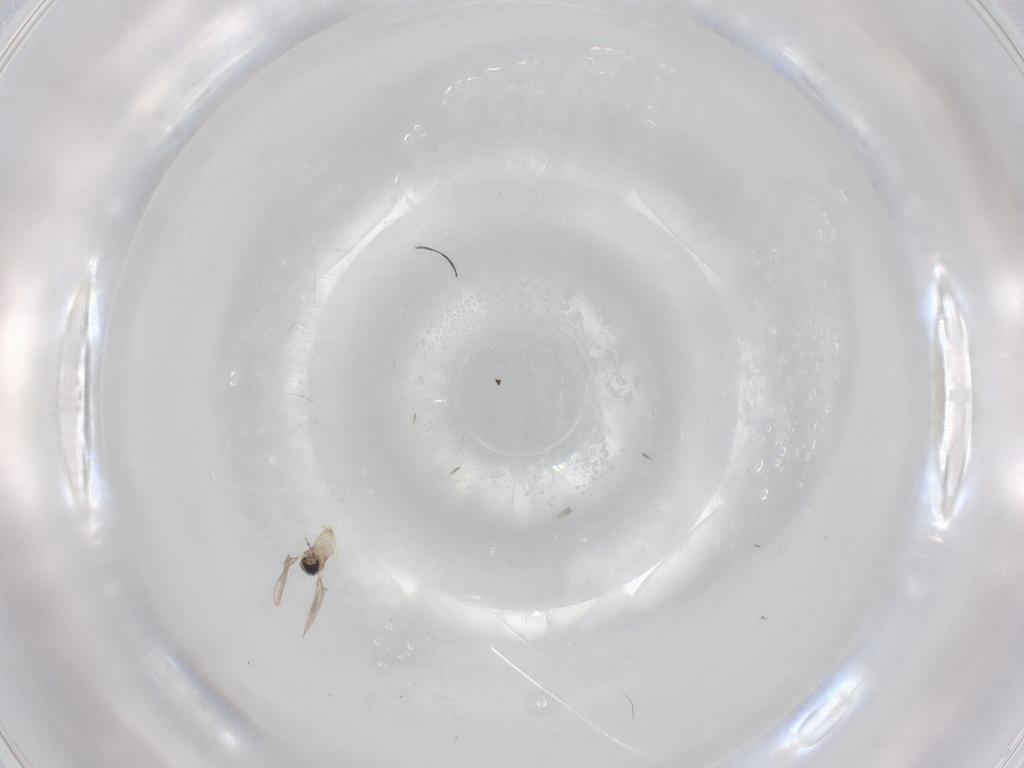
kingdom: Animalia
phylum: Arthropoda
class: Insecta
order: Diptera
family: Cecidomyiidae
